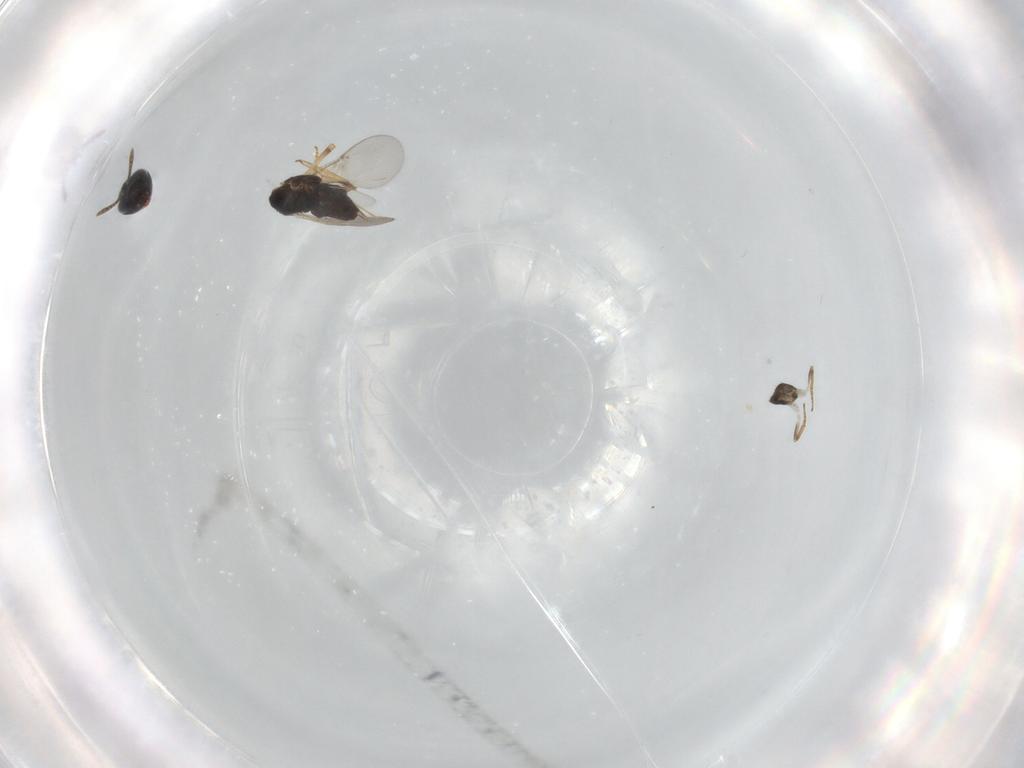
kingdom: Animalia
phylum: Arthropoda
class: Insecta
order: Hymenoptera
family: Encyrtidae
